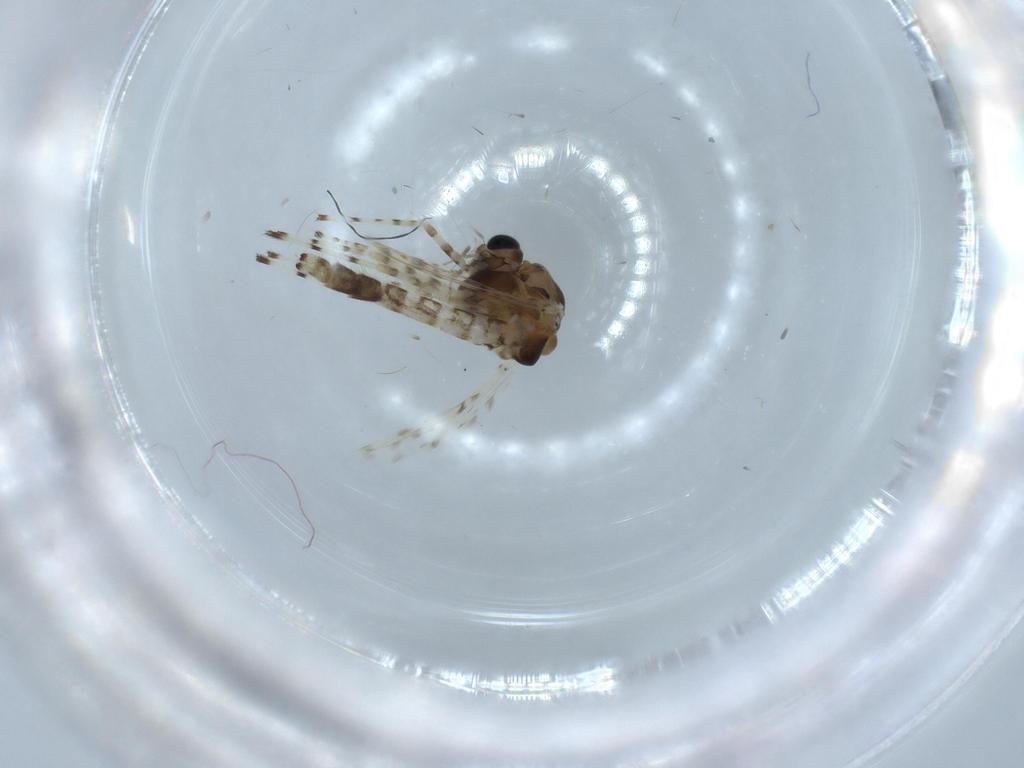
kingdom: Animalia
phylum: Arthropoda
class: Insecta
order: Diptera
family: Chironomidae
